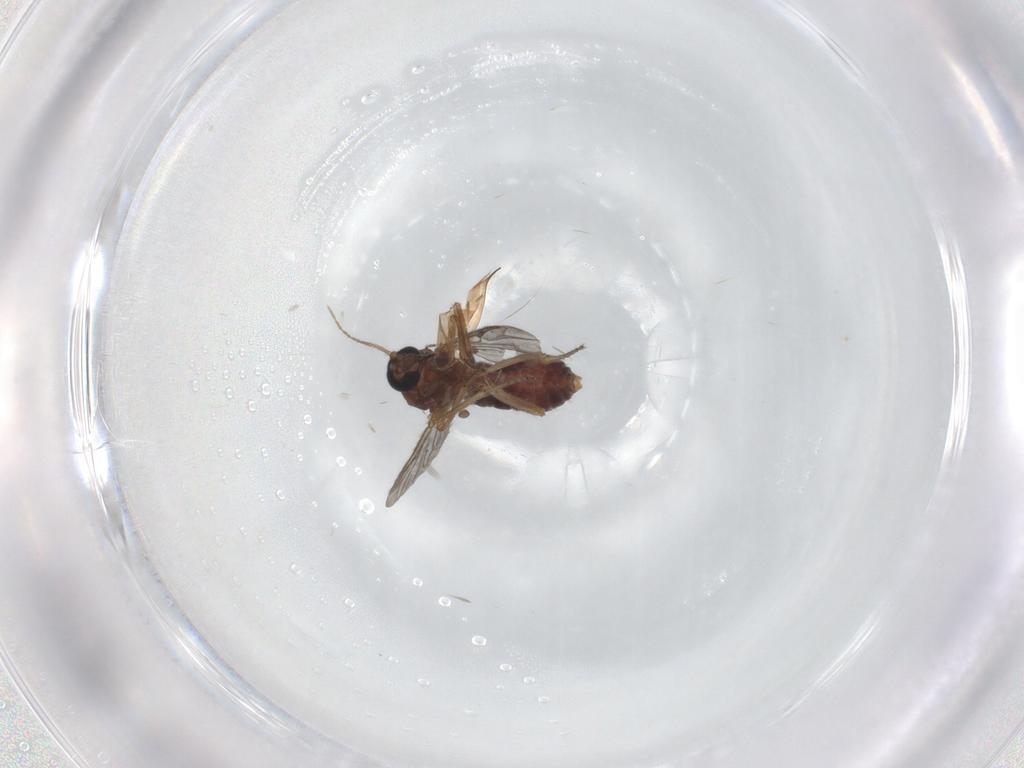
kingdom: Animalia
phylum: Arthropoda
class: Insecta
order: Diptera
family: Ceratopogonidae
